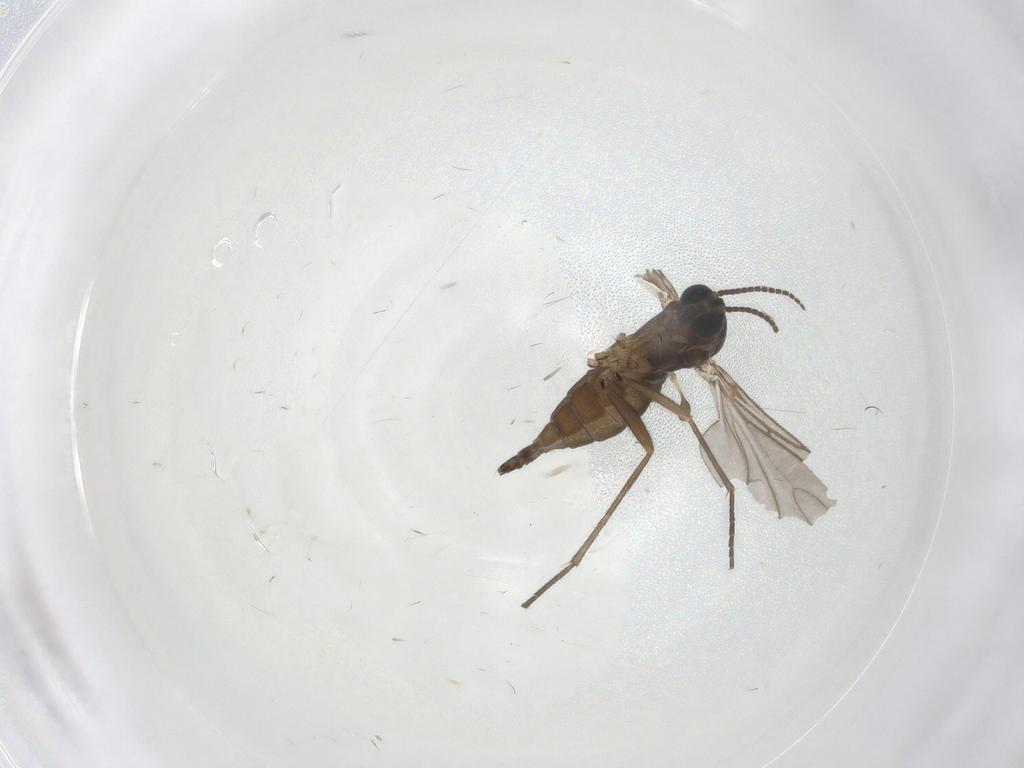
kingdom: Animalia
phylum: Arthropoda
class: Insecta
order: Diptera
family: Sciaridae
